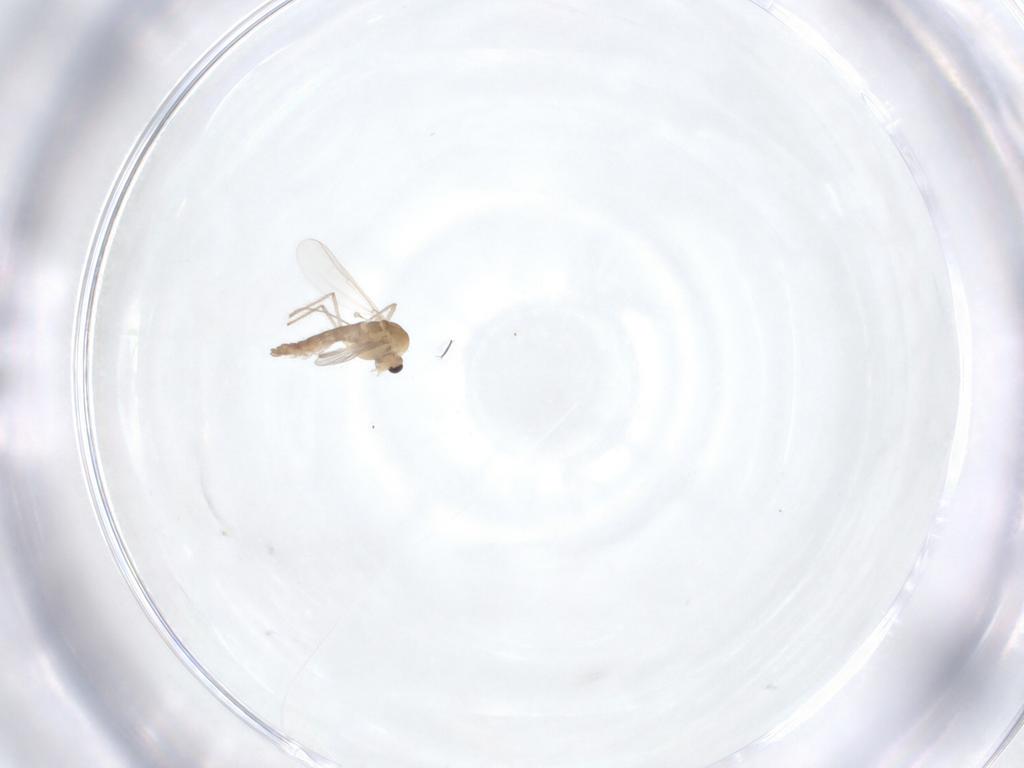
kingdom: Animalia
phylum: Arthropoda
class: Insecta
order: Diptera
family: Chironomidae
